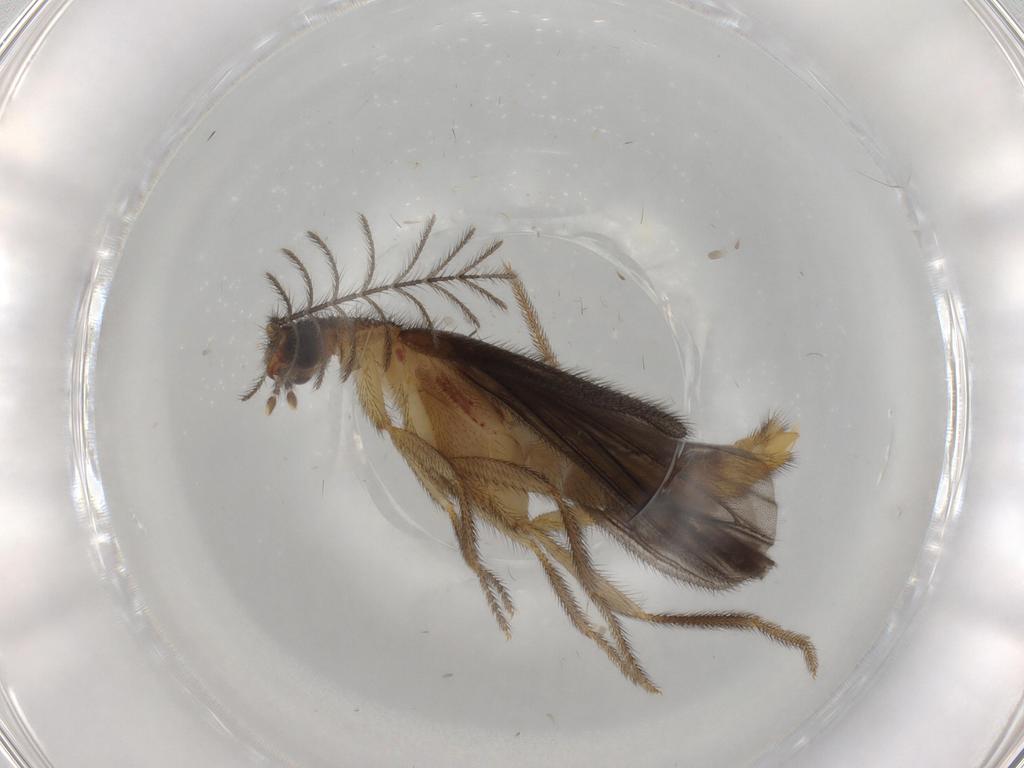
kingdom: Animalia
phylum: Arthropoda
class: Insecta
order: Coleoptera
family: Phengodidae
